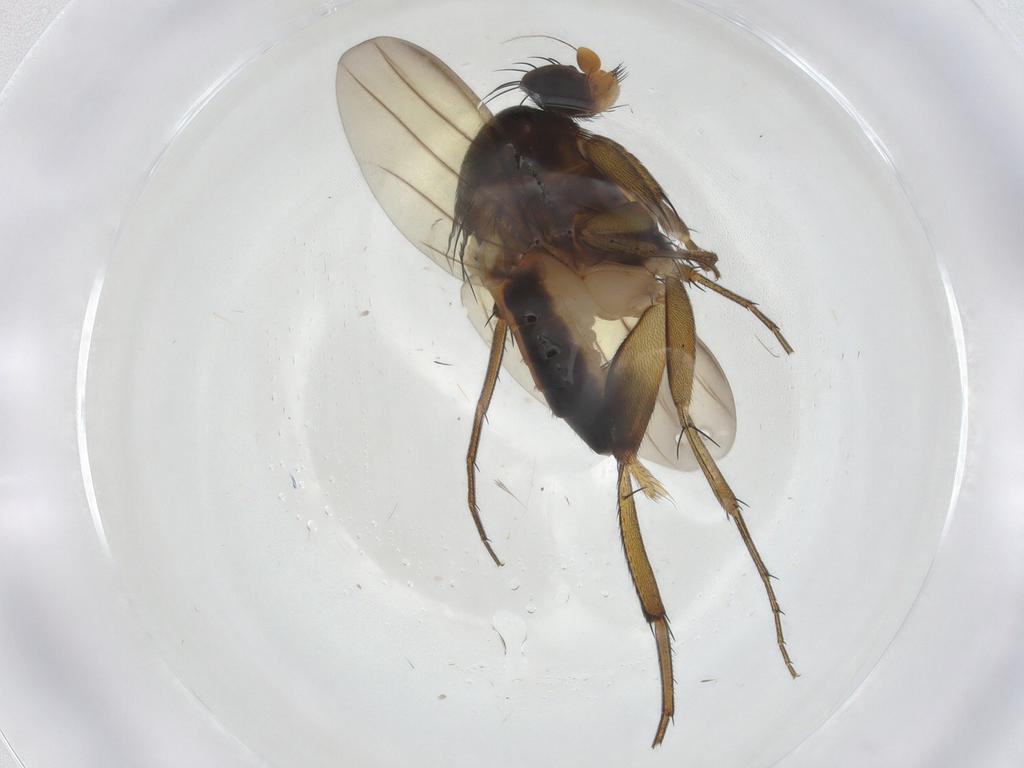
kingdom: Animalia
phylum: Arthropoda
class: Insecta
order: Diptera
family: Phoridae
